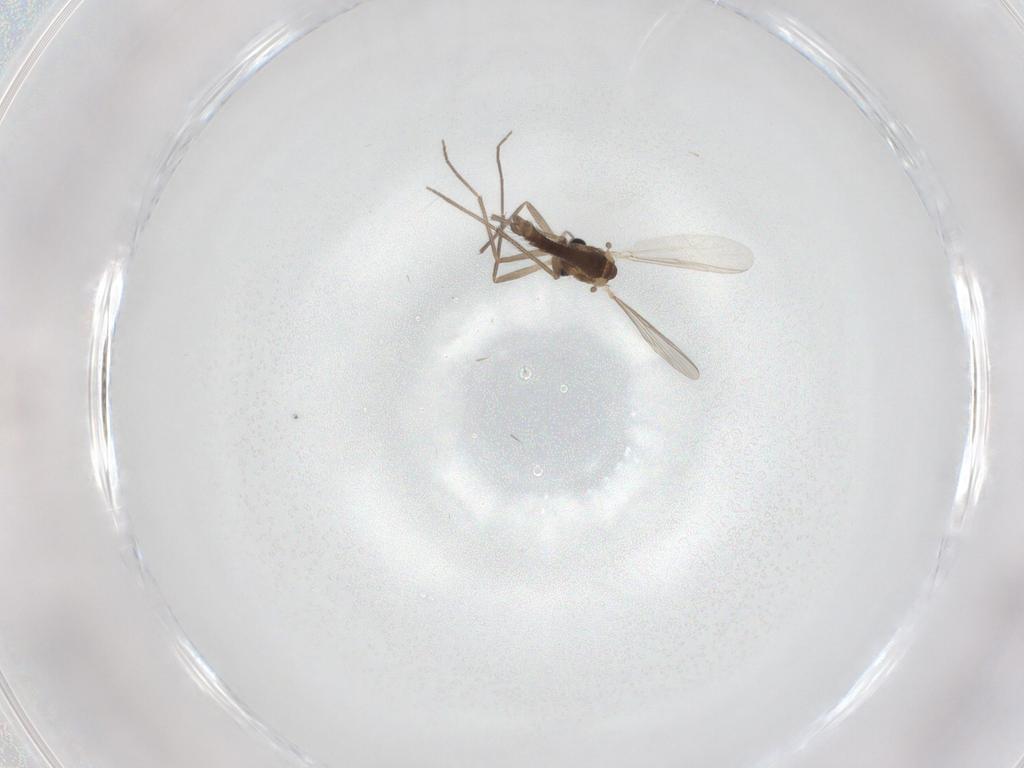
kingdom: Animalia
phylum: Arthropoda
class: Insecta
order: Diptera
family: Chironomidae
